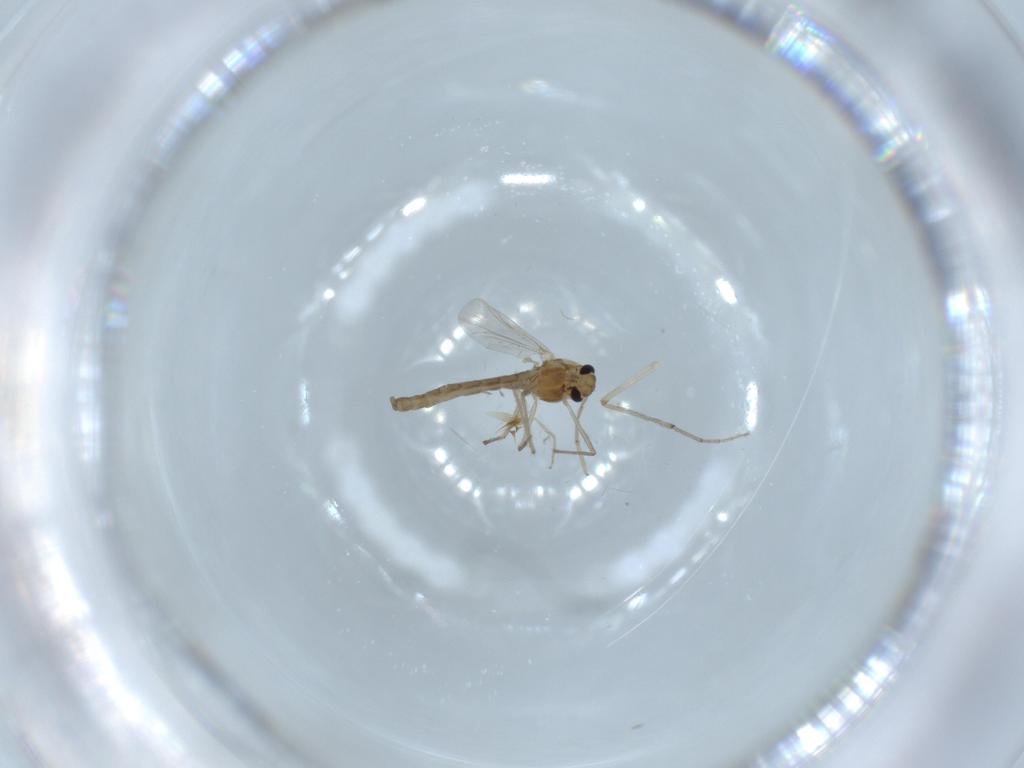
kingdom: Animalia
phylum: Arthropoda
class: Insecta
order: Diptera
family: Chironomidae
